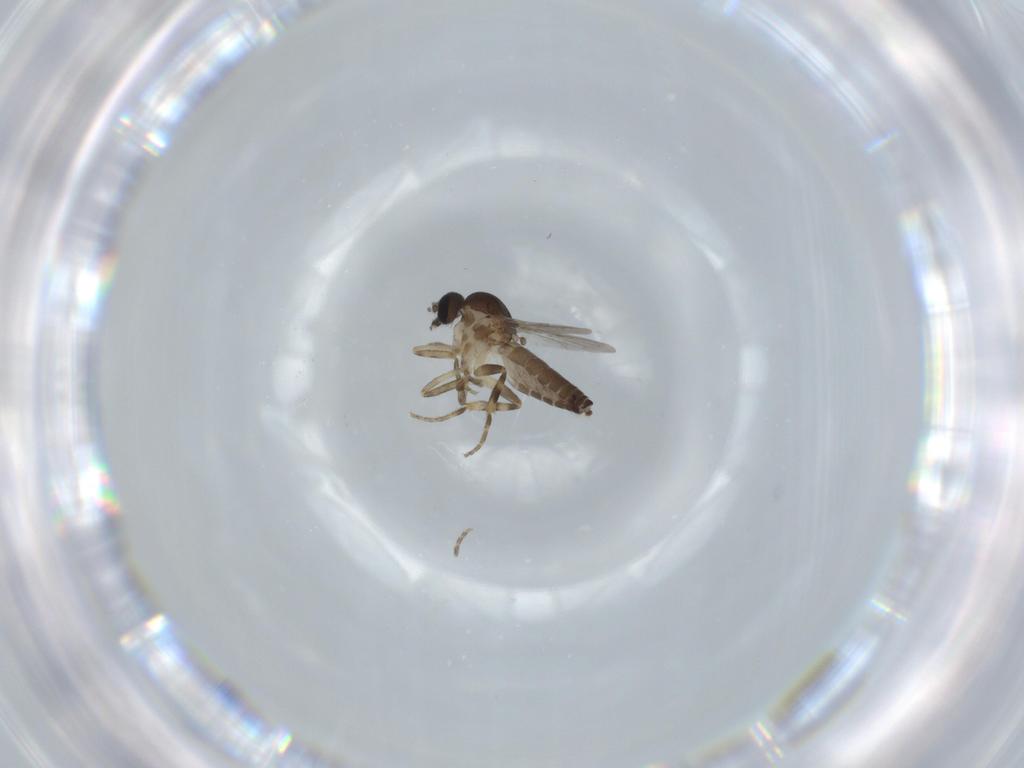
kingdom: Animalia
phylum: Arthropoda
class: Insecta
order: Diptera
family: Ceratopogonidae
